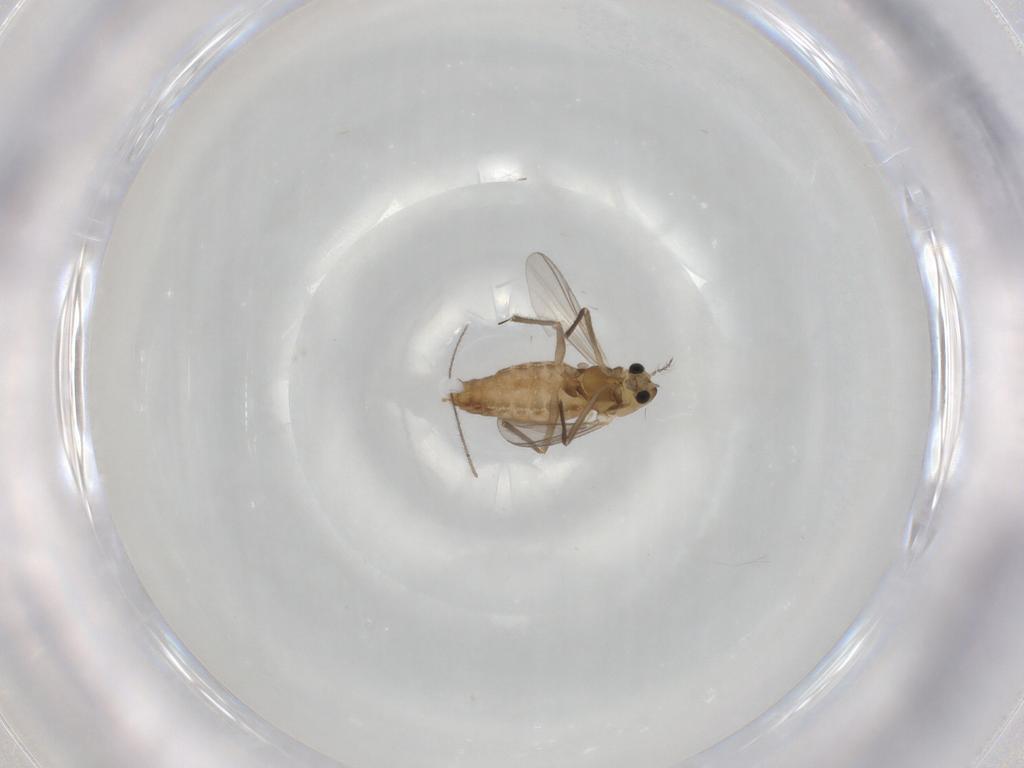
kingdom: Animalia
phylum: Arthropoda
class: Insecta
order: Diptera
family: Chironomidae
